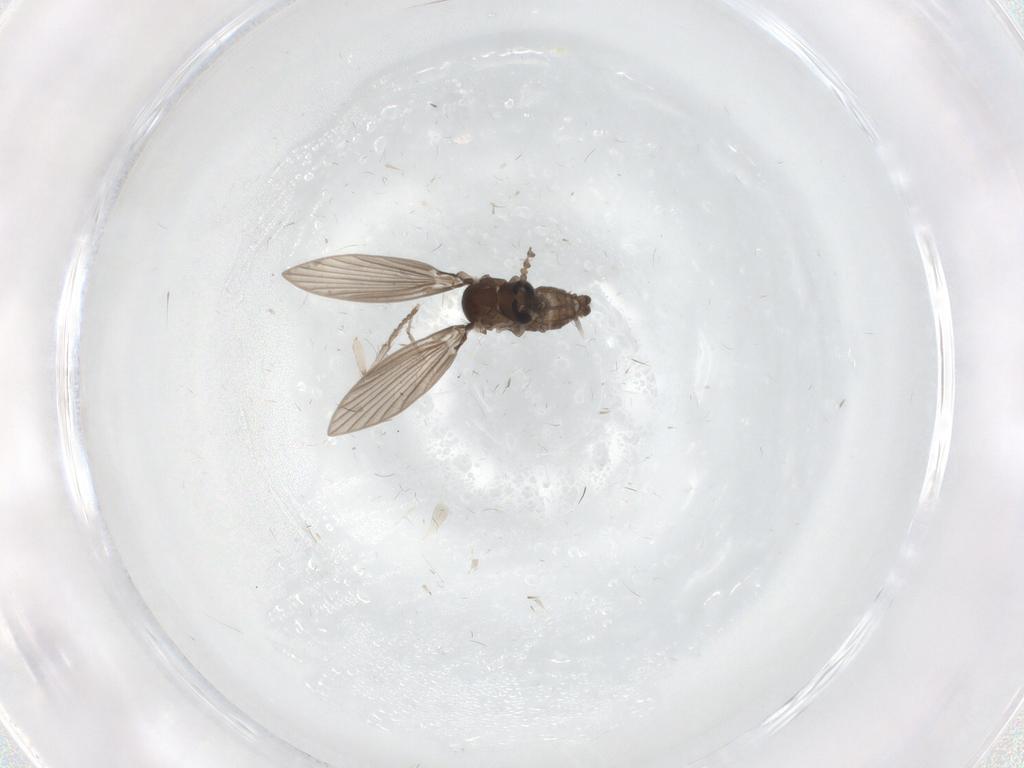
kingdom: Animalia
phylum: Arthropoda
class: Insecta
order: Diptera
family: Psychodidae
